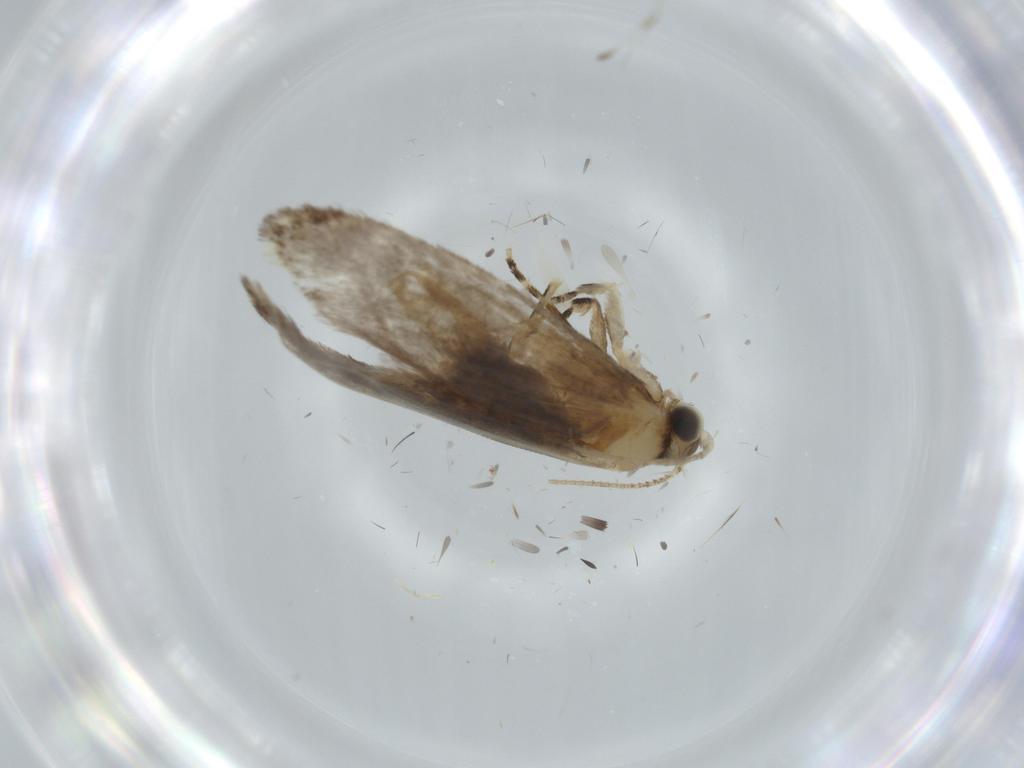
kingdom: Animalia
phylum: Arthropoda
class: Insecta
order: Lepidoptera
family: Tineidae
